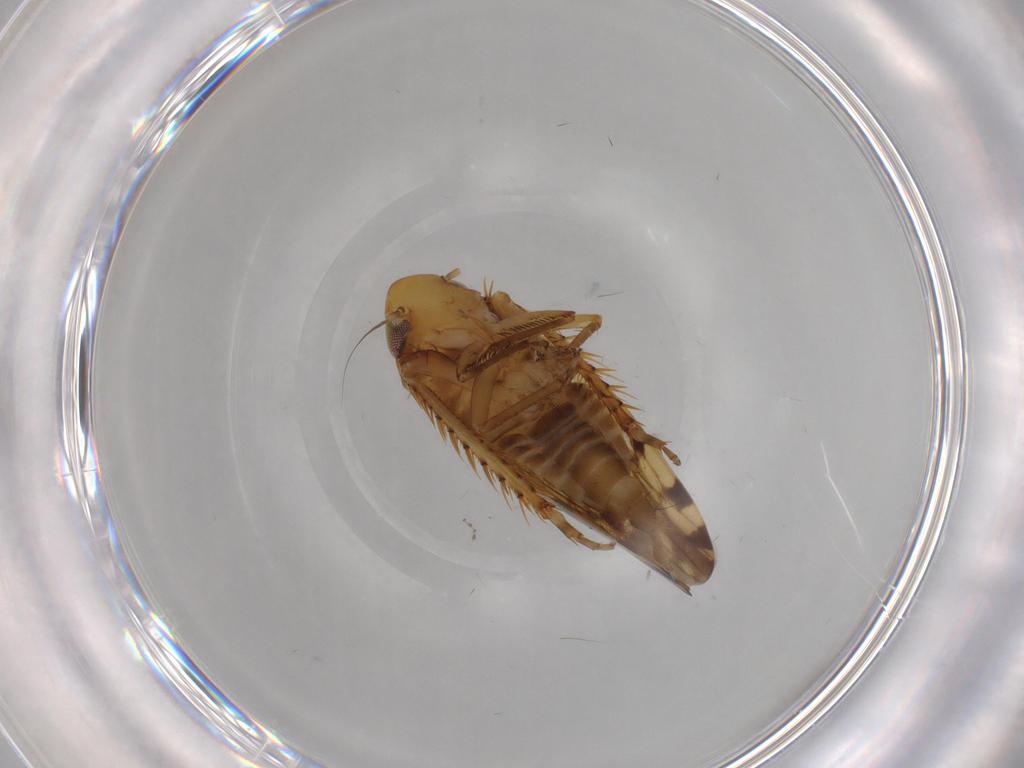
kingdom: Animalia
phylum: Arthropoda
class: Insecta
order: Hemiptera
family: Cicadellidae
